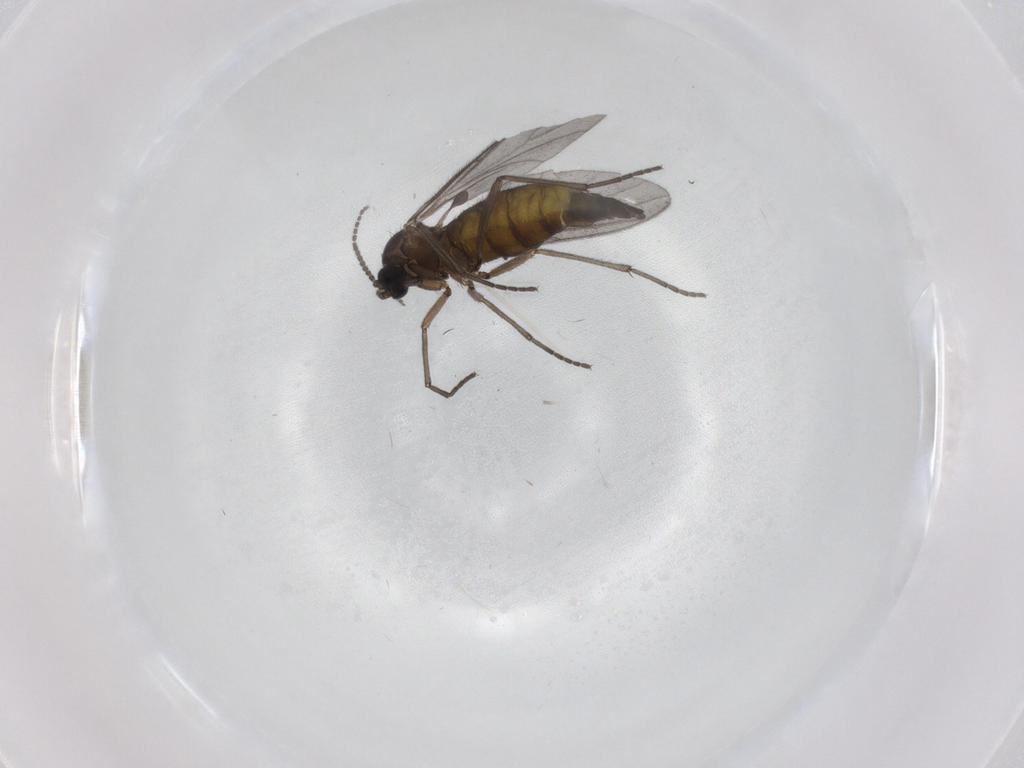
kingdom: Animalia
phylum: Arthropoda
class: Insecta
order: Diptera
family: Sciaridae
